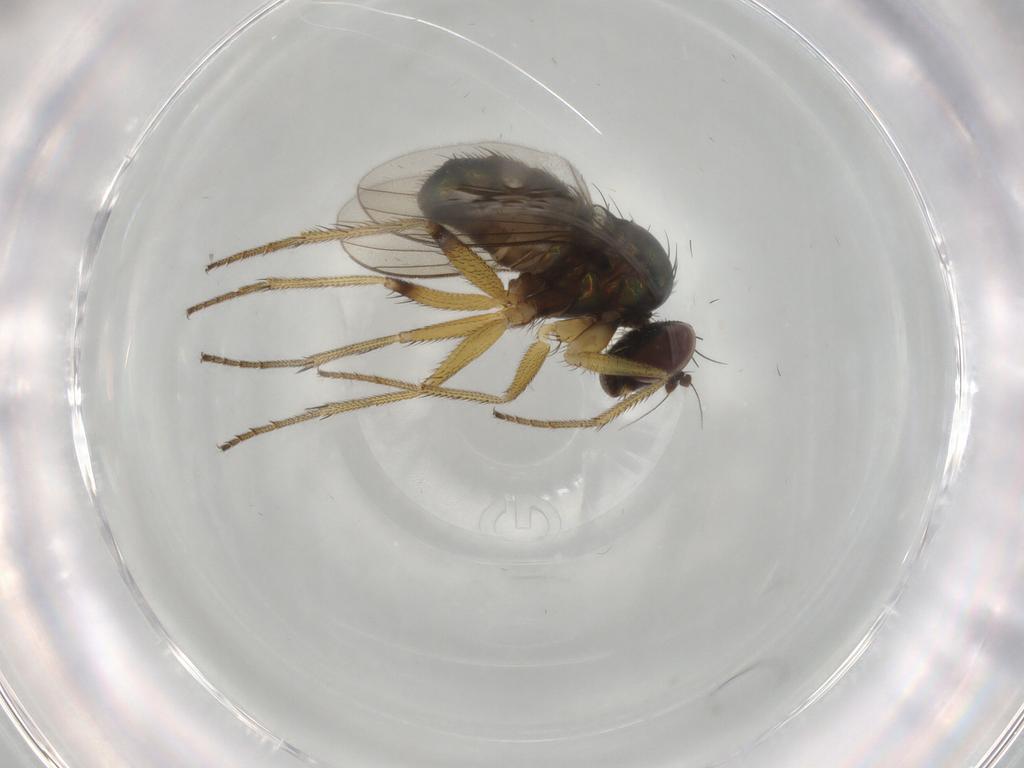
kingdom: Animalia
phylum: Arthropoda
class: Insecta
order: Diptera
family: Dolichopodidae
